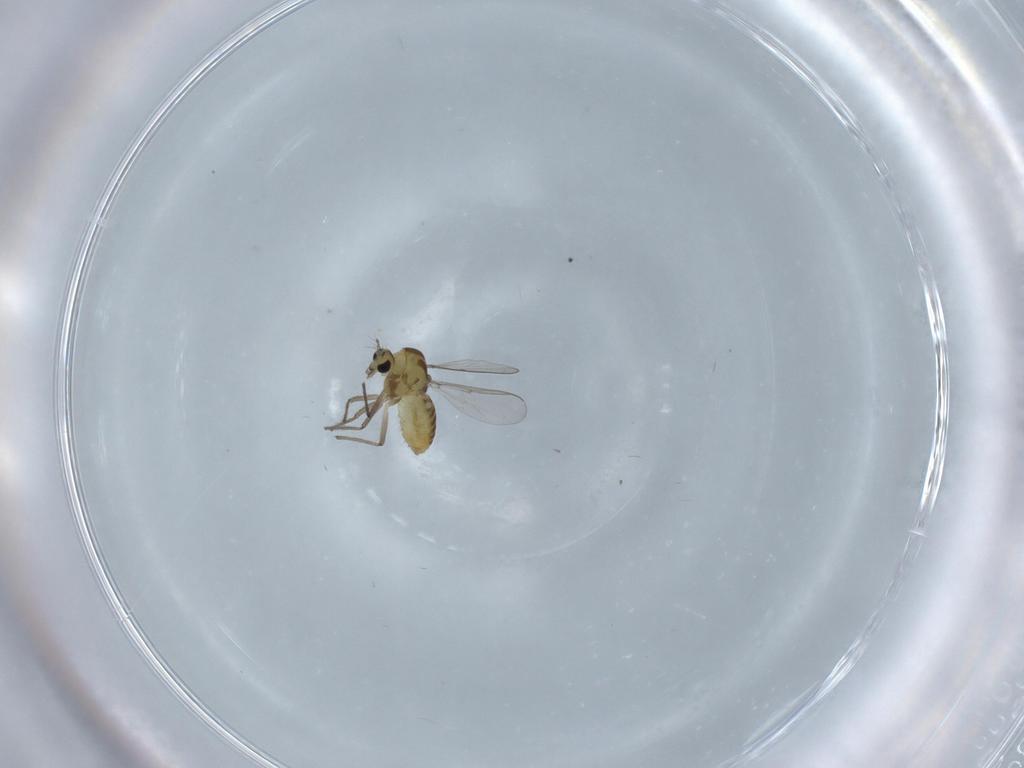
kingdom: Animalia
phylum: Arthropoda
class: Insecta
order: Diptera
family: Chironomidae
